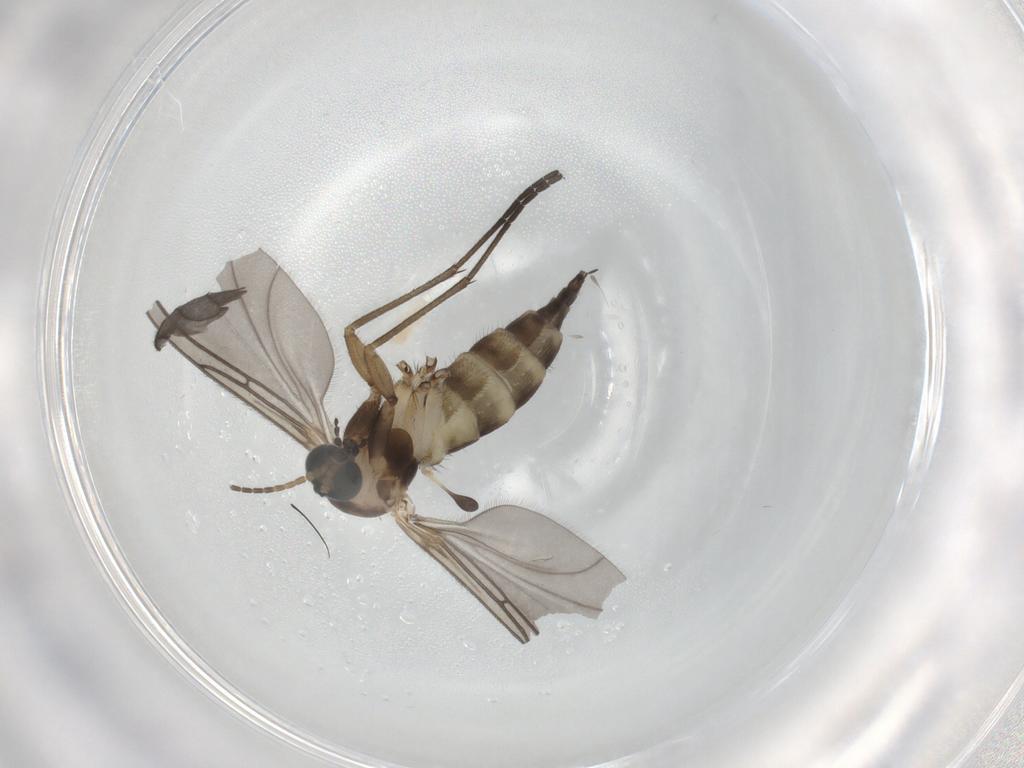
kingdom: Animalia
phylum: Arthropoda
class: Insecta
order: Diptera
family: Sciaridae
